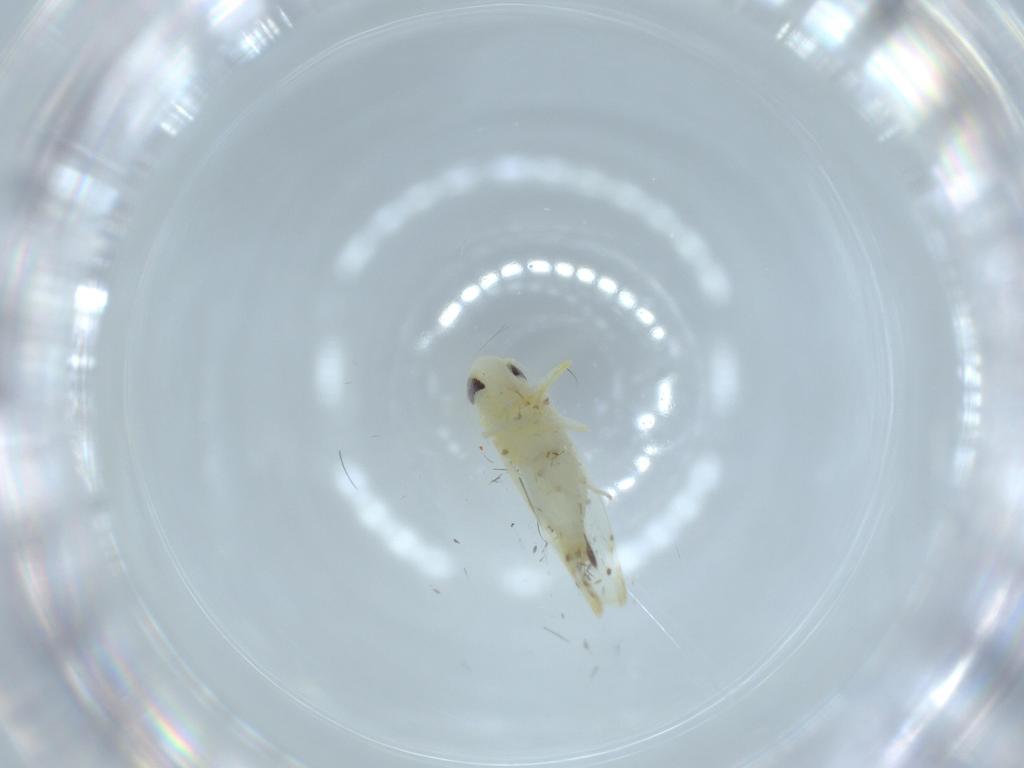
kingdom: Animalia
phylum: Arthropoda
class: Insecta
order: Hemiptera
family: Cicadellidae
